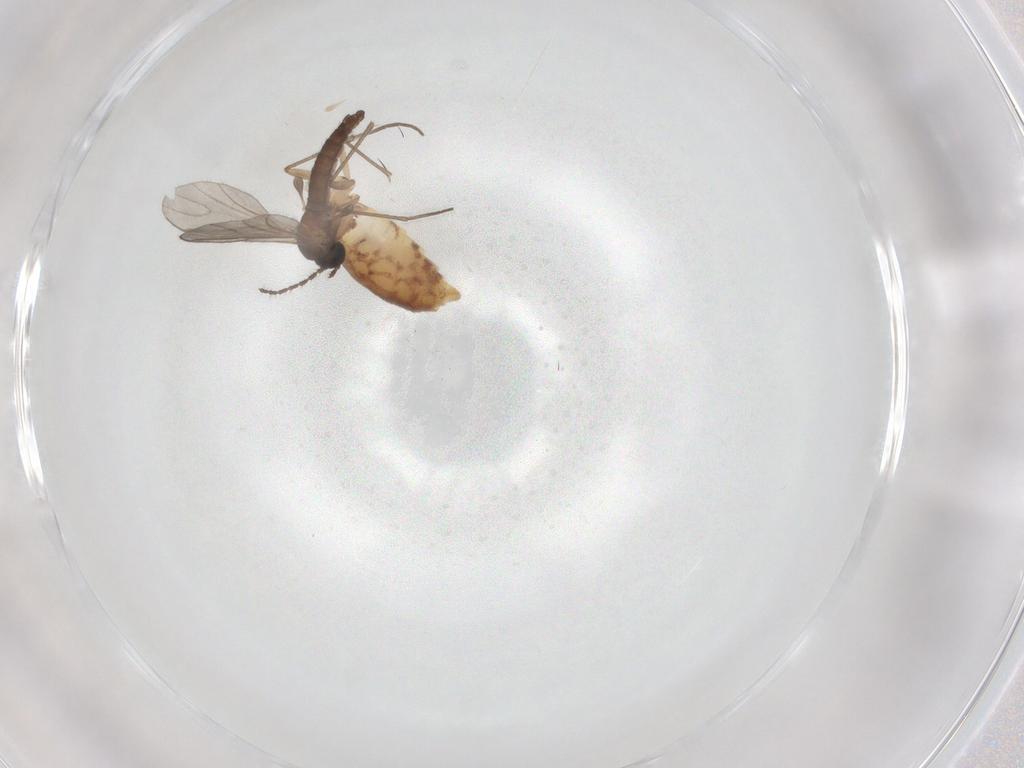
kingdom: Animalia
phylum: Arthropoda
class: Insecta
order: Diptera
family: Mycetophilidae
